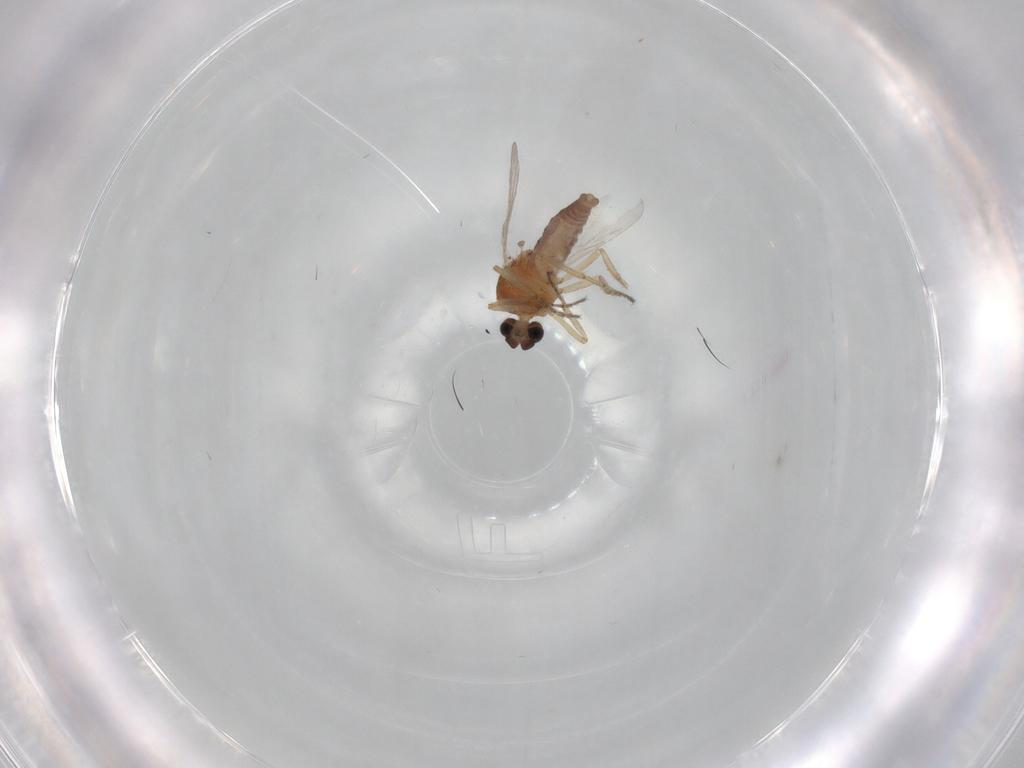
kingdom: Animalia
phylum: Arthropoda
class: Insecta
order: Diptera
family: Ceratopogonidae
